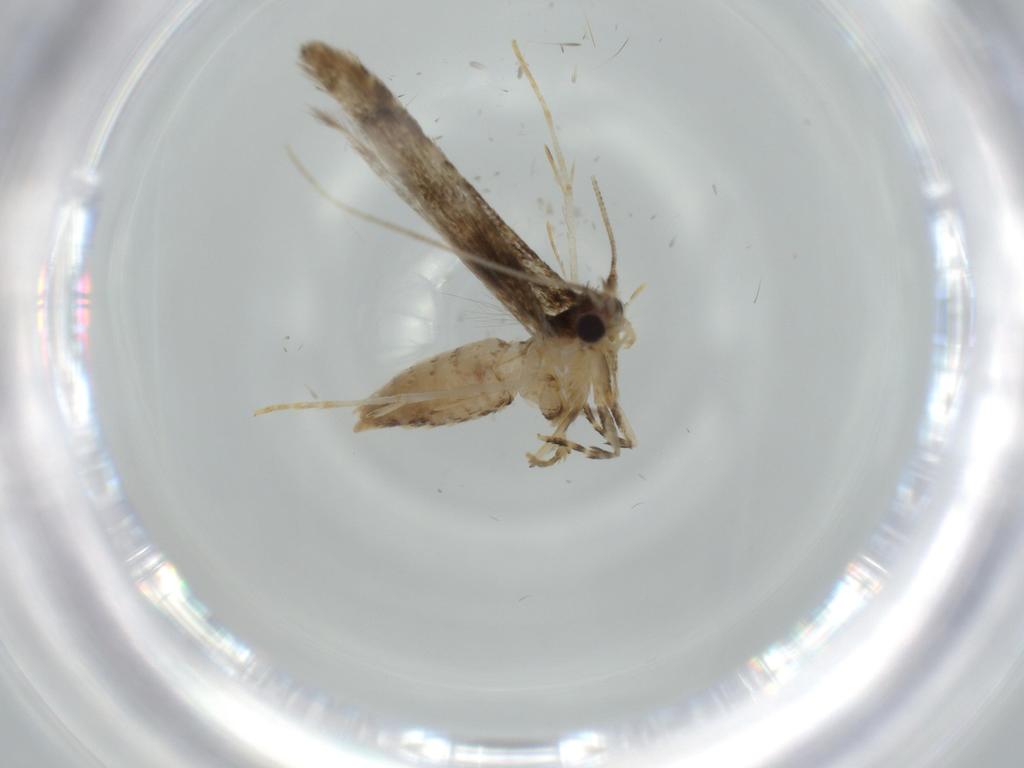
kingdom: Animalia
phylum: Arthropoda
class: Insecta
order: Lepidoptera
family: Tineidae
